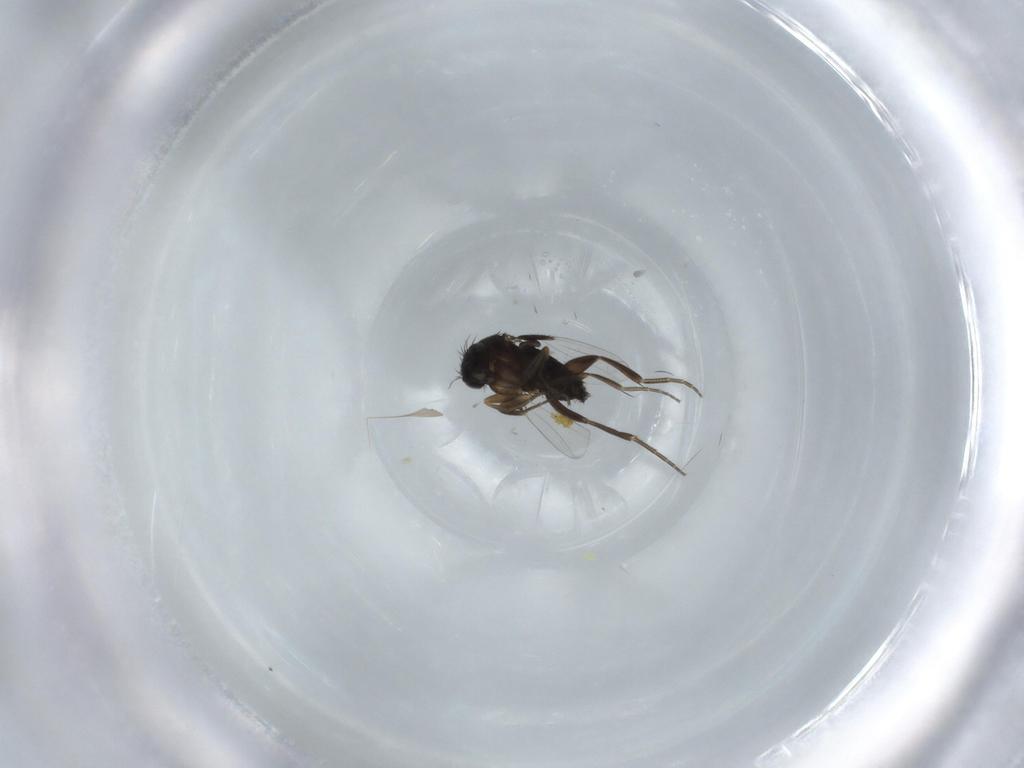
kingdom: Animalia
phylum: Arthropoda
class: Insecta
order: Diptera
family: Phoridae
